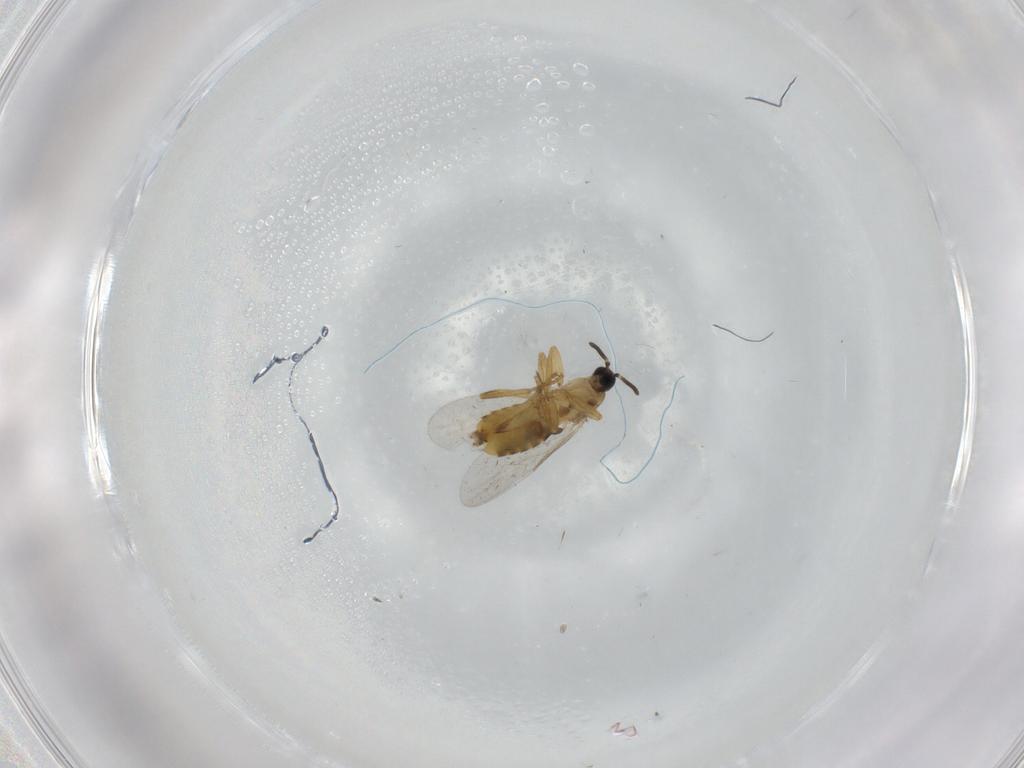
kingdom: Animalia
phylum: Arthropoda
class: Insecta
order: Diptera
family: Scatopsidae
